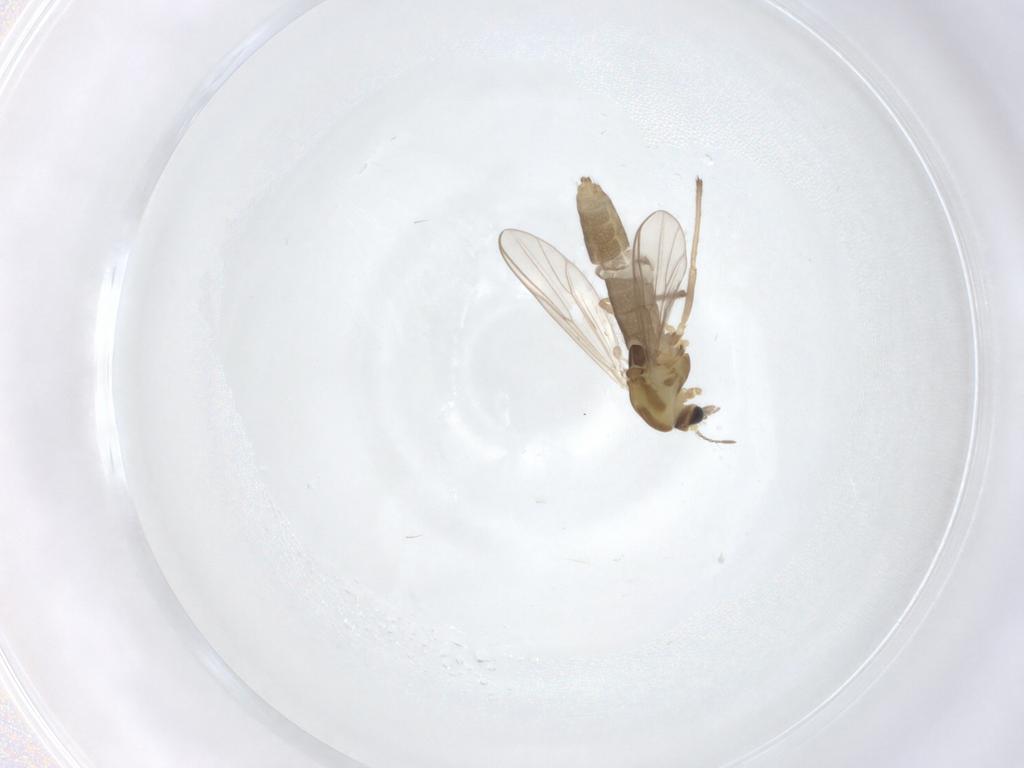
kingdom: Animalia
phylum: Arthropoda
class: Insecta
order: Diptera
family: Chironomidae
